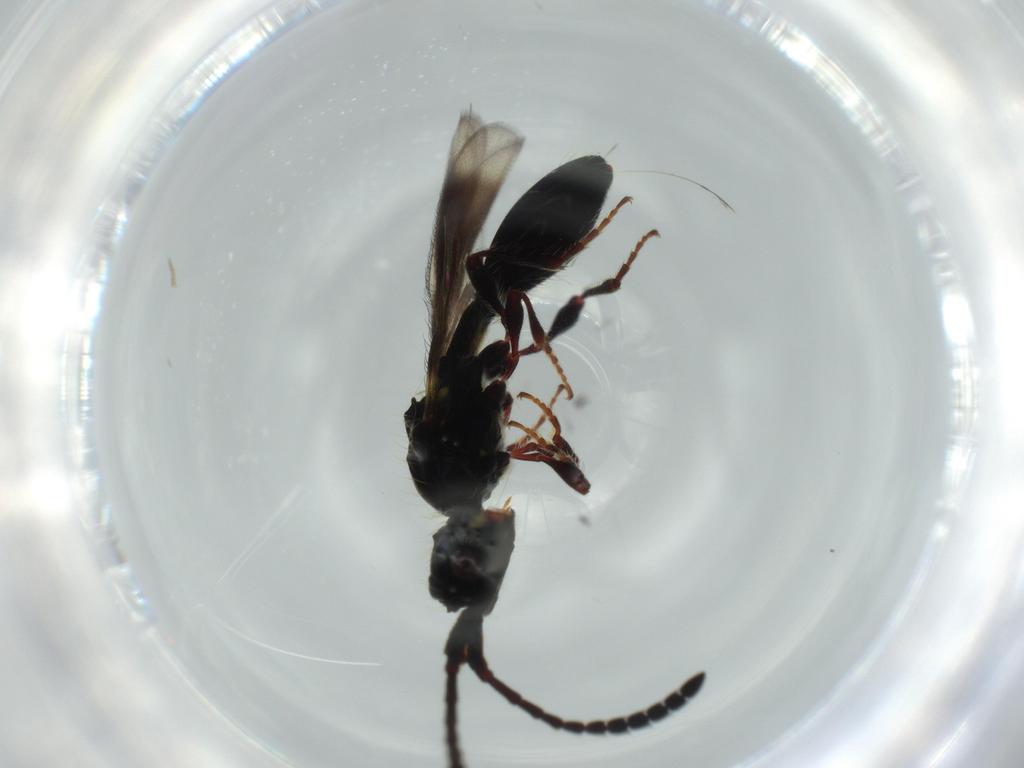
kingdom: Animalia
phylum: Arthropoda
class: Insecta
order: Hymenoptera
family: Diapriidae
